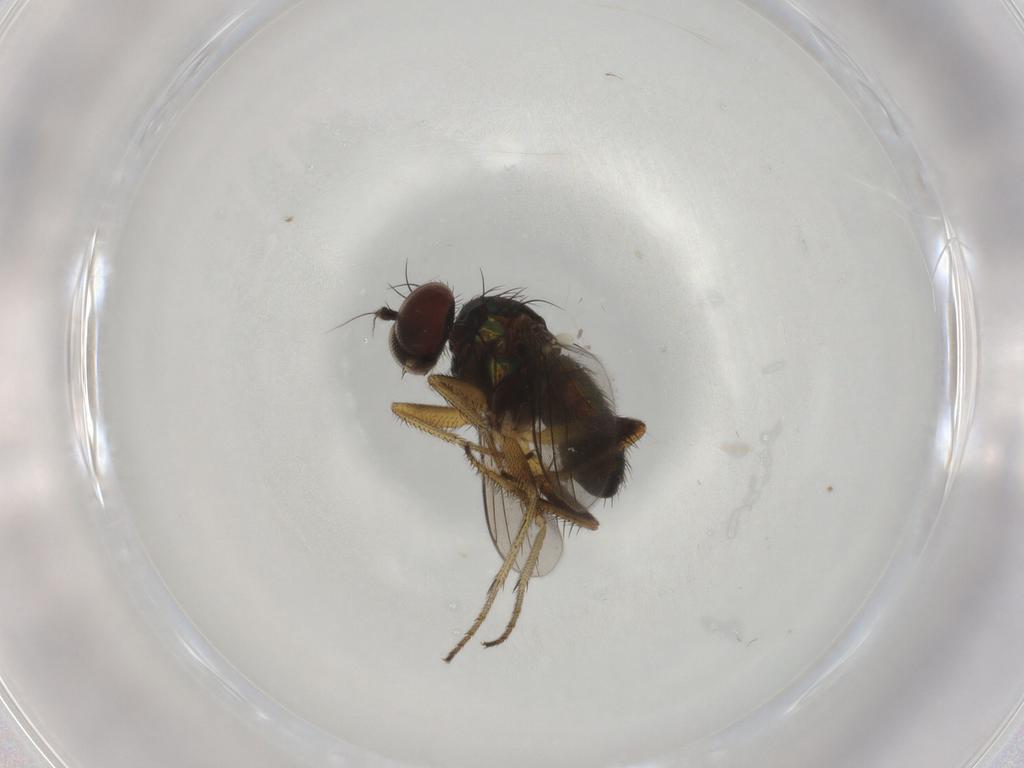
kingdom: Animalia
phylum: Arthropoda
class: Insecta
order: Diptera
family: Dolichopodidae
